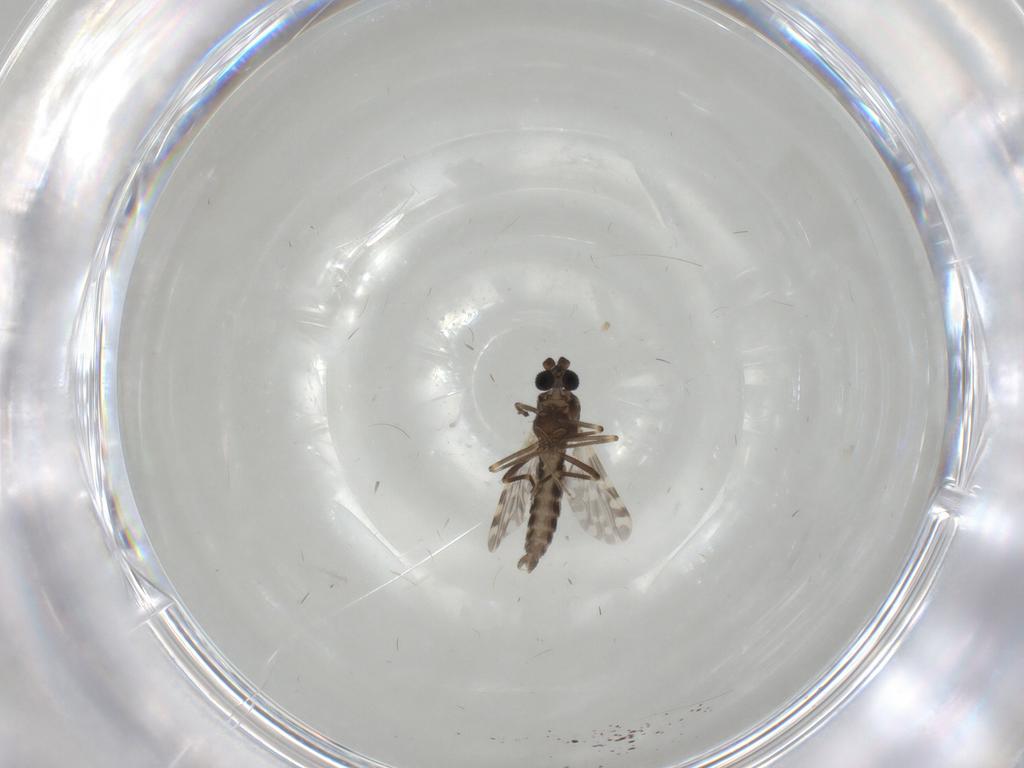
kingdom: Animalia
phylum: Arthropoda
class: Insecta
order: Diptera
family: Ceratopogonidae
